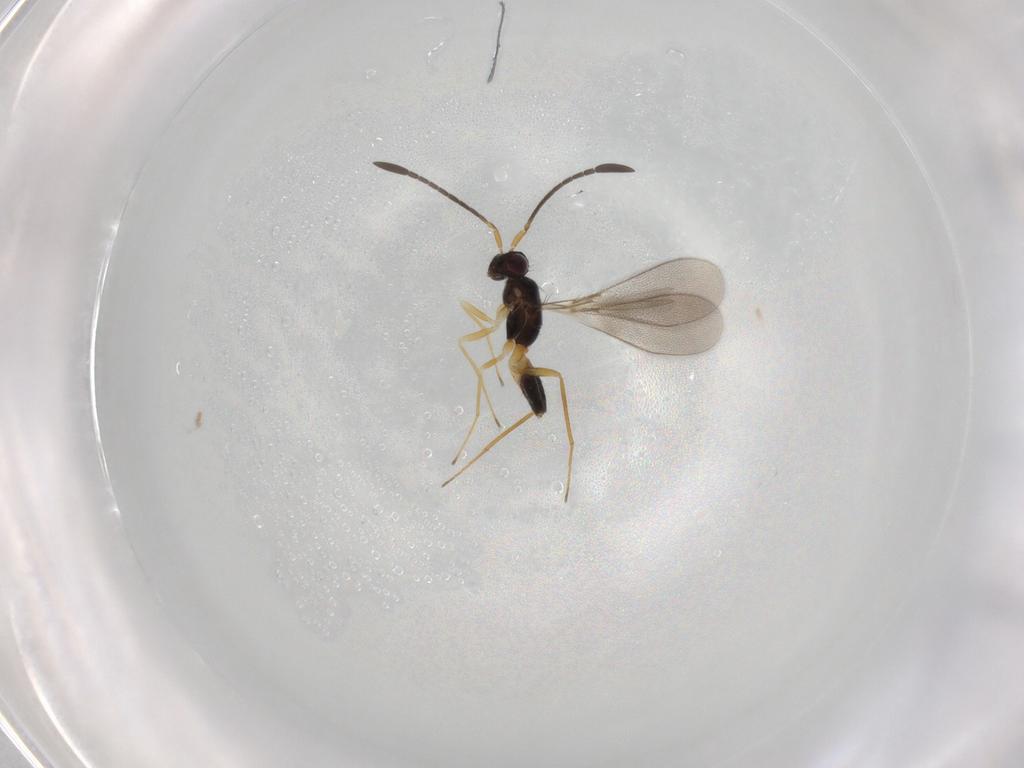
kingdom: Animalia
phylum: Arthropoda
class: Insecta
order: Hymenoptera
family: Mymaridae
